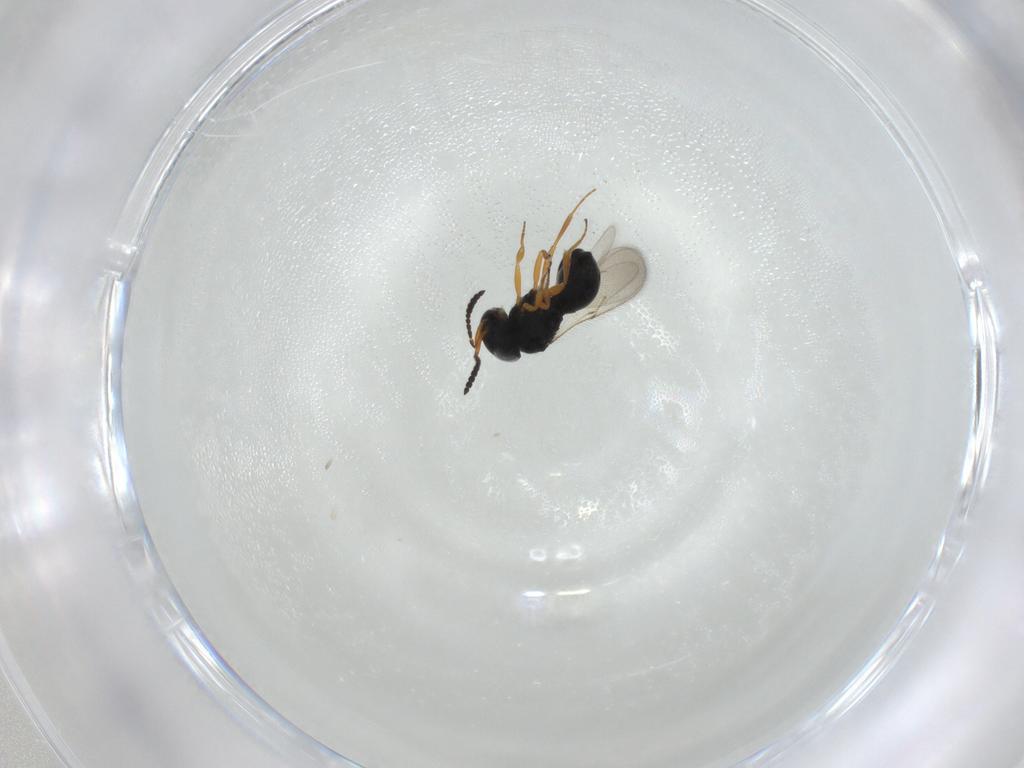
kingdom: Animalia
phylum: Arthropoda
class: Insecta
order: Hymenoptera
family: Scelionidae
